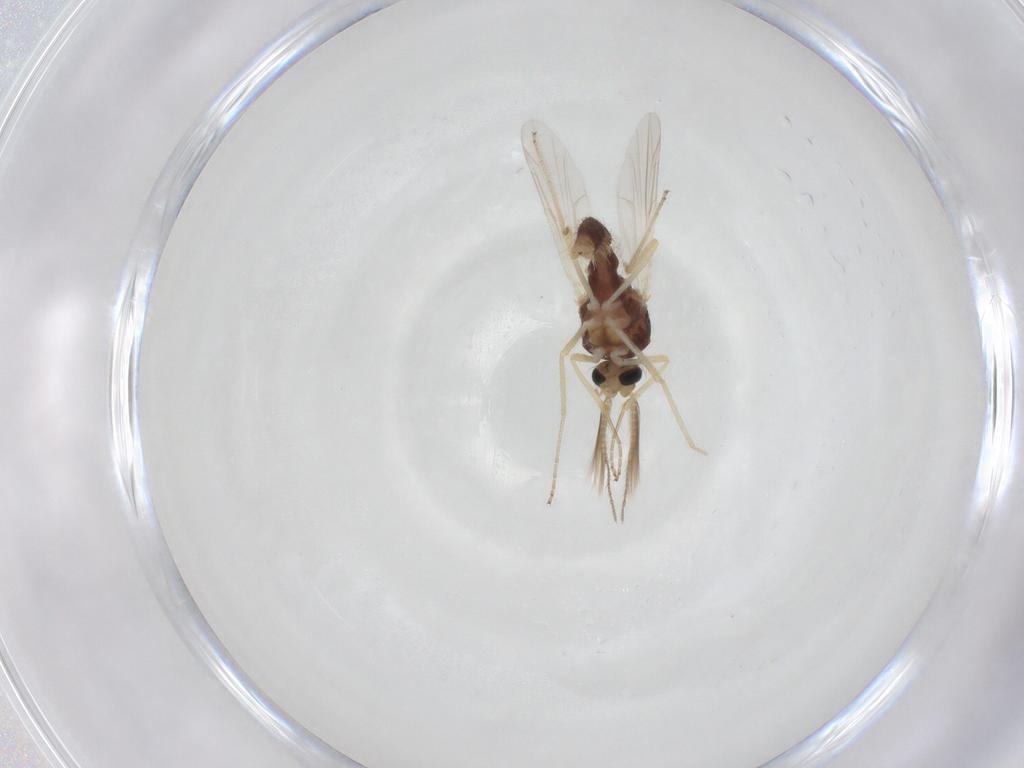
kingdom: Animalia
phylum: Arthropoda
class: Insecta
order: Diptera
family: Ceratopogonidae
